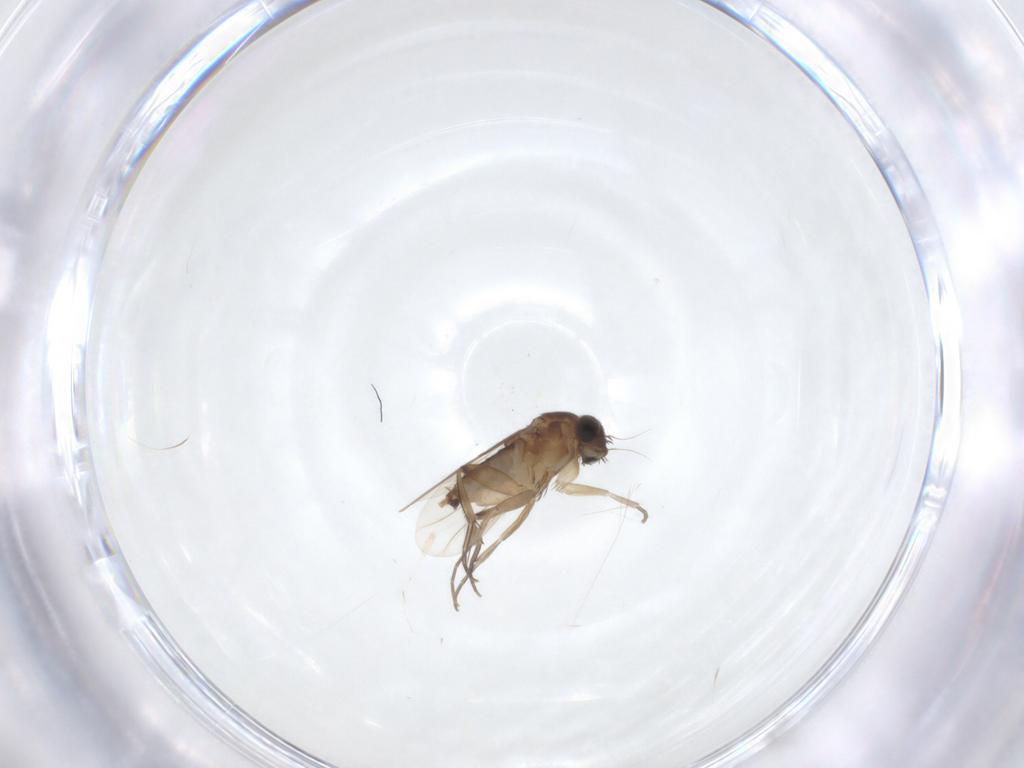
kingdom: Animalia
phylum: Arthropoda
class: Insecta
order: Diptera
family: Phoridae
